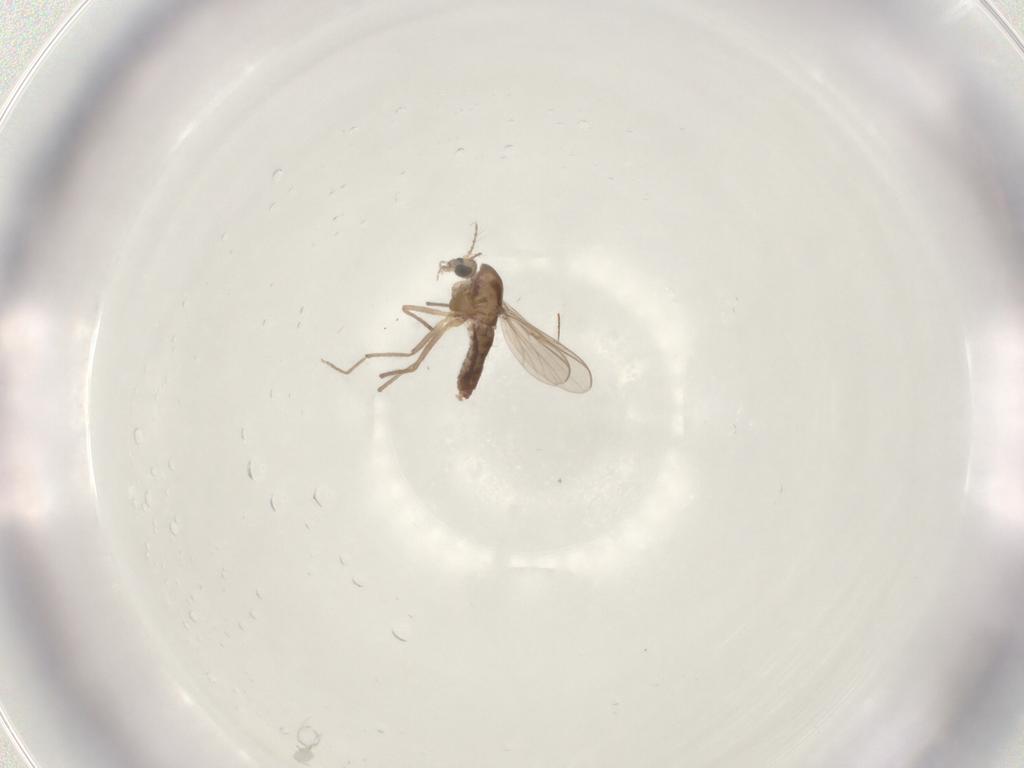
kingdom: Animalia
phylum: Arthropoda
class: Insecta
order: Diptera
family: Chironomidae
